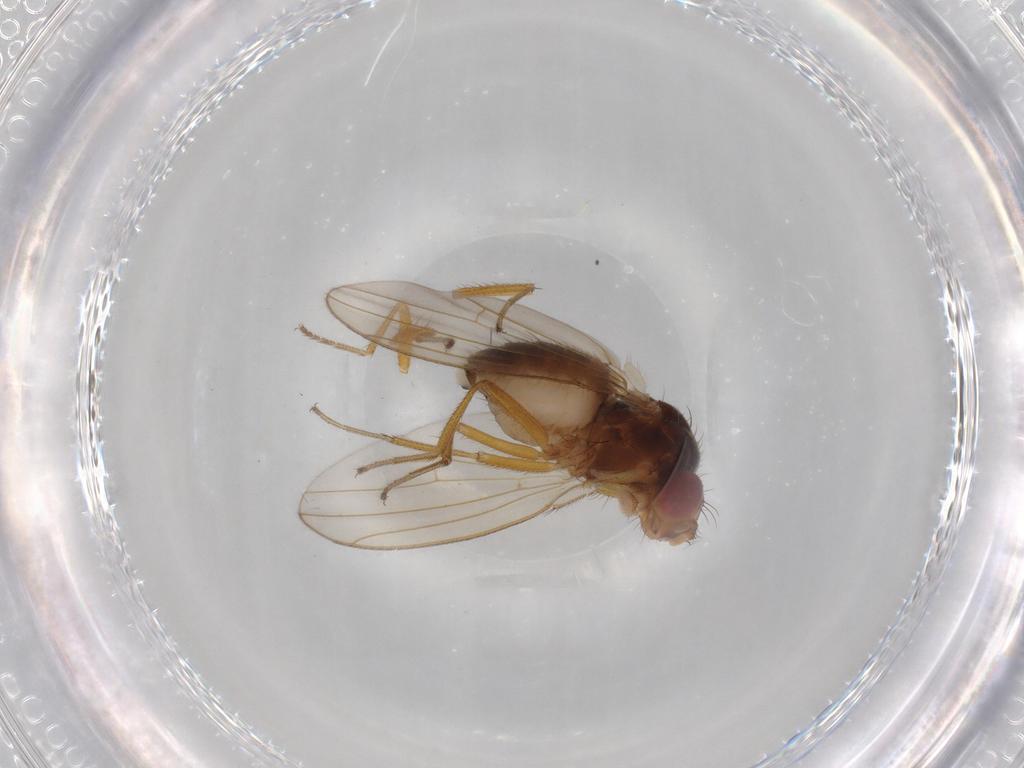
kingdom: Animalia
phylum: Arthropoda
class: Insecta
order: Diptera
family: Drosophilidae
